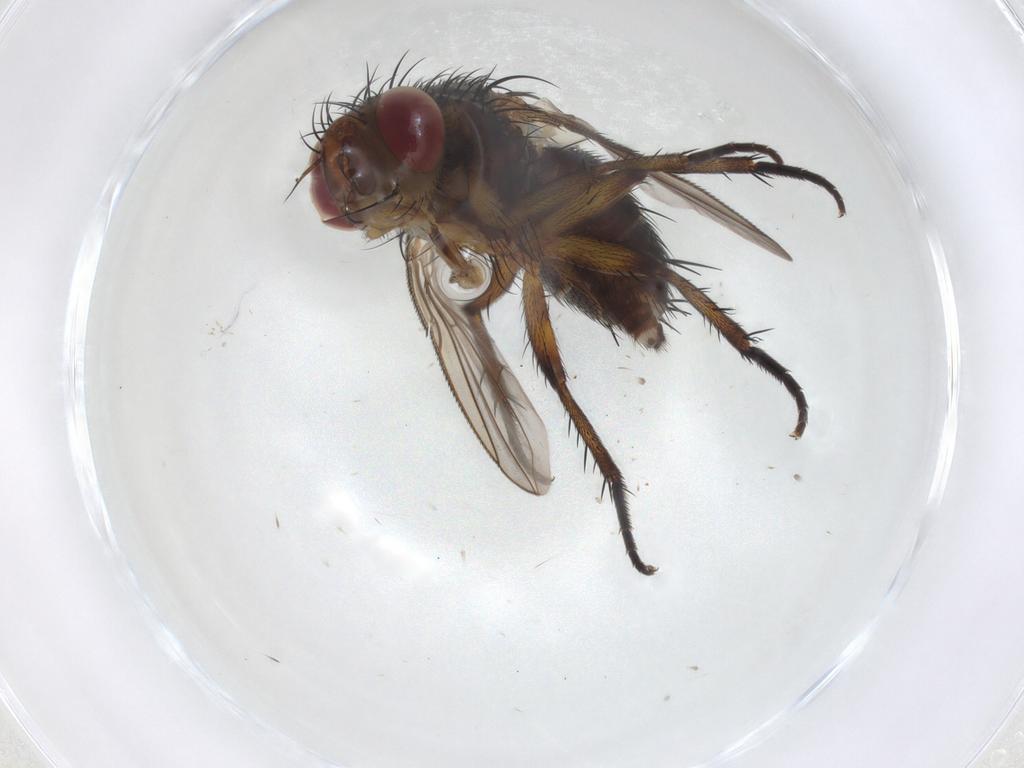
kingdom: Animalia
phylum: Arthropoda
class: Insecta
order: Diptera
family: Tachinidae
